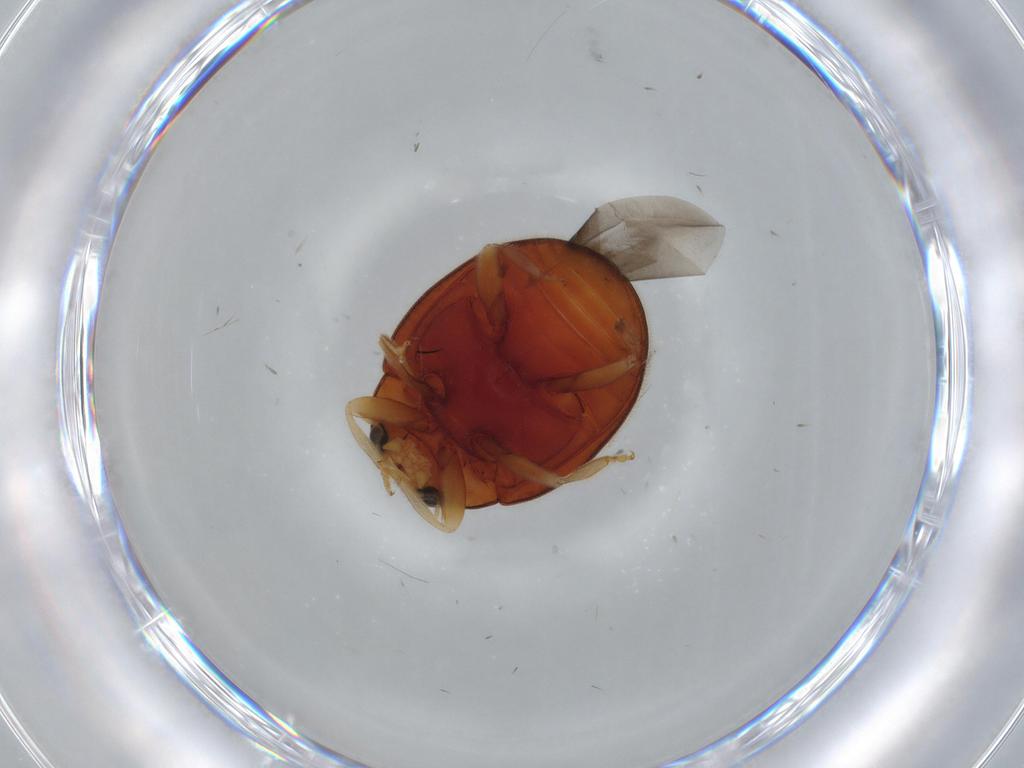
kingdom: Animalia
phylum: Arthropoda
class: Insecta
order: Coleoptera
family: Coccinellidae
